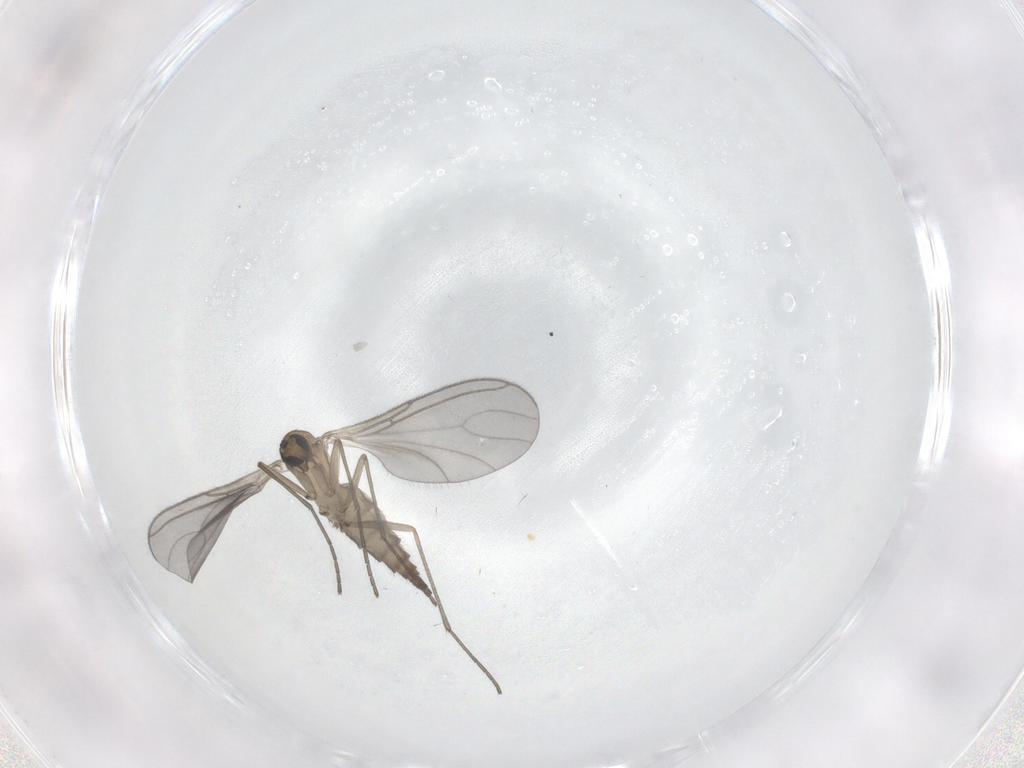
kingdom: Animalia
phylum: Arthropoda
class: Insecta
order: Diptera
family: Sciaridae
